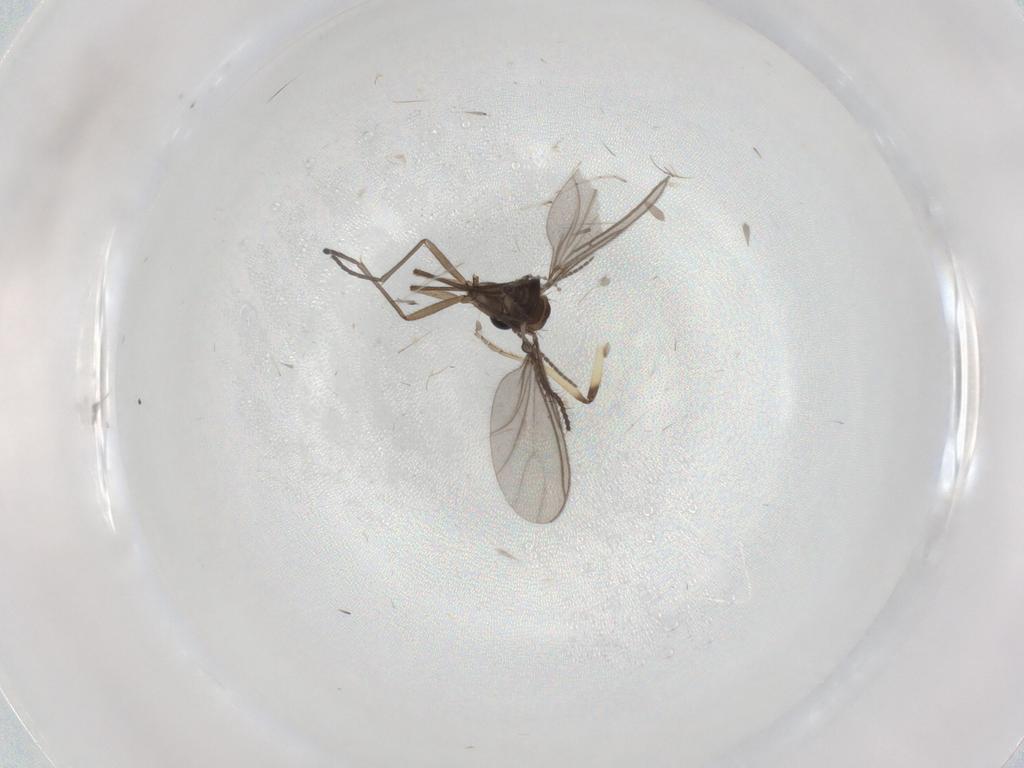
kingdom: Animalia
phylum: Arthropoda
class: Insecta
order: Diptera
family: Sciaridae
